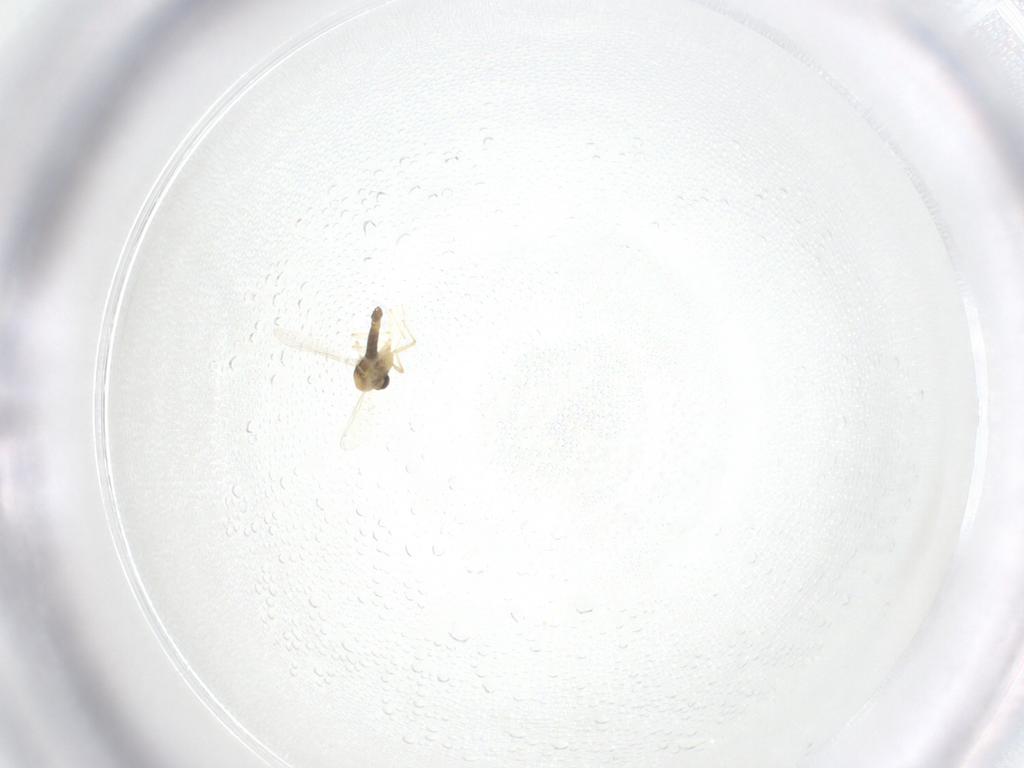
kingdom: Animalia
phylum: Arthropoda
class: Insecta
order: Diptera
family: Chironomidae
